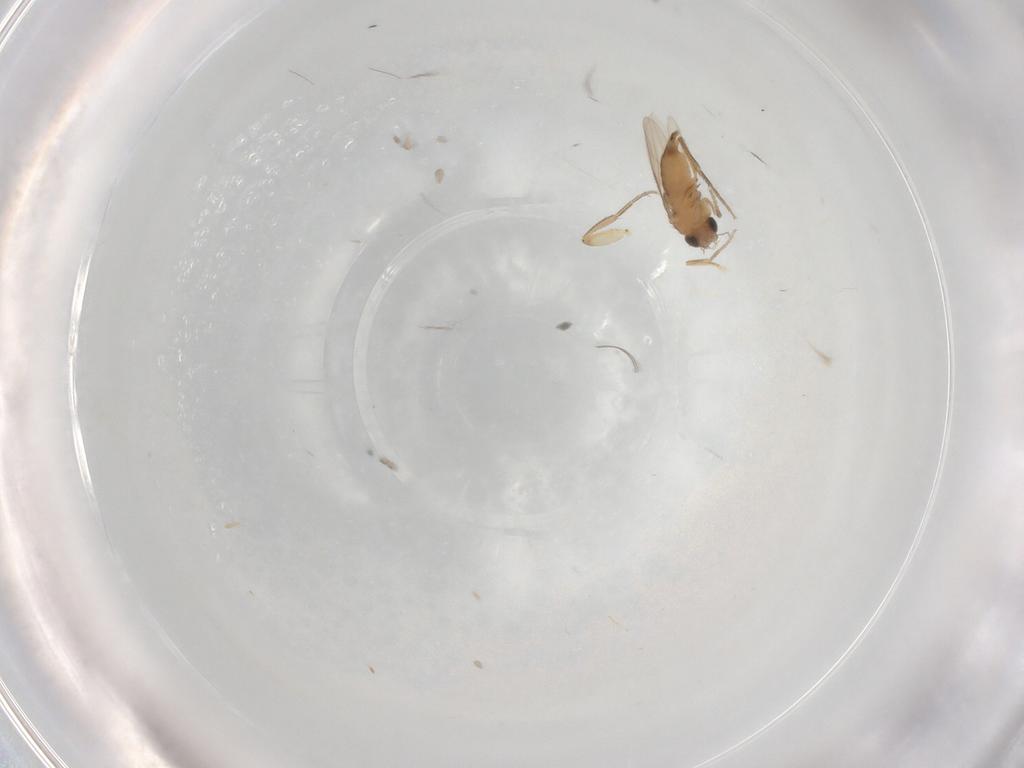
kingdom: Animalia
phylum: Arthropoda
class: Insecta
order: Diptera
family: Phoridae
